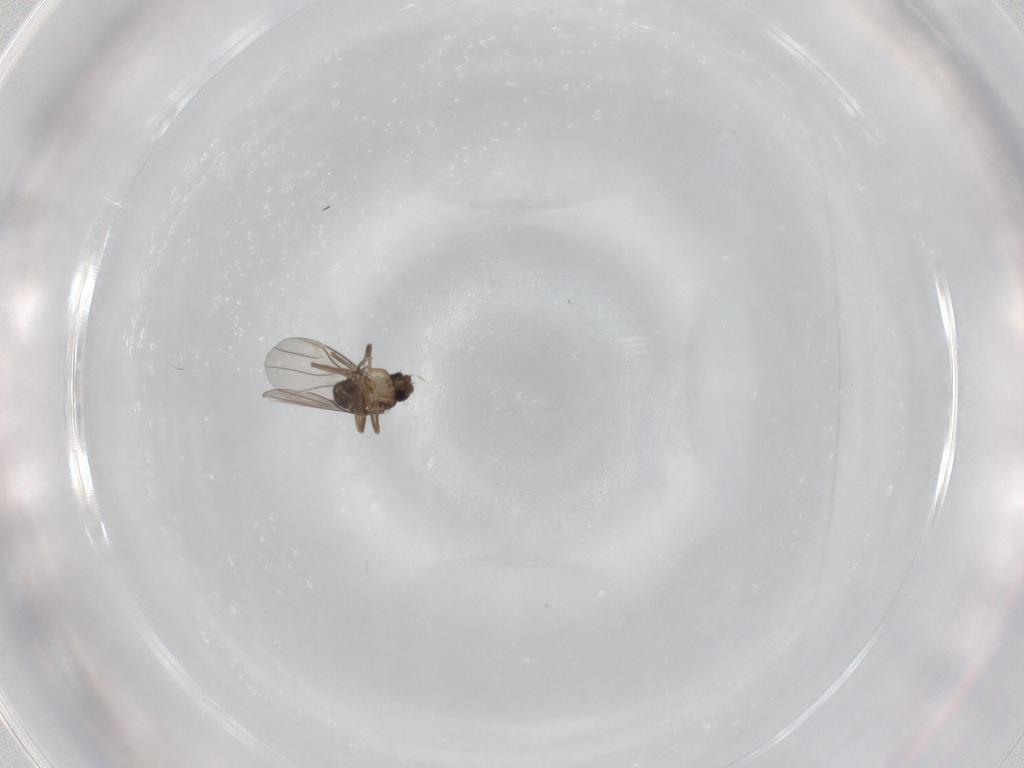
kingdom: Animalia
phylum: Arthropoda
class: Insecta
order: Diptera
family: Phoridae
